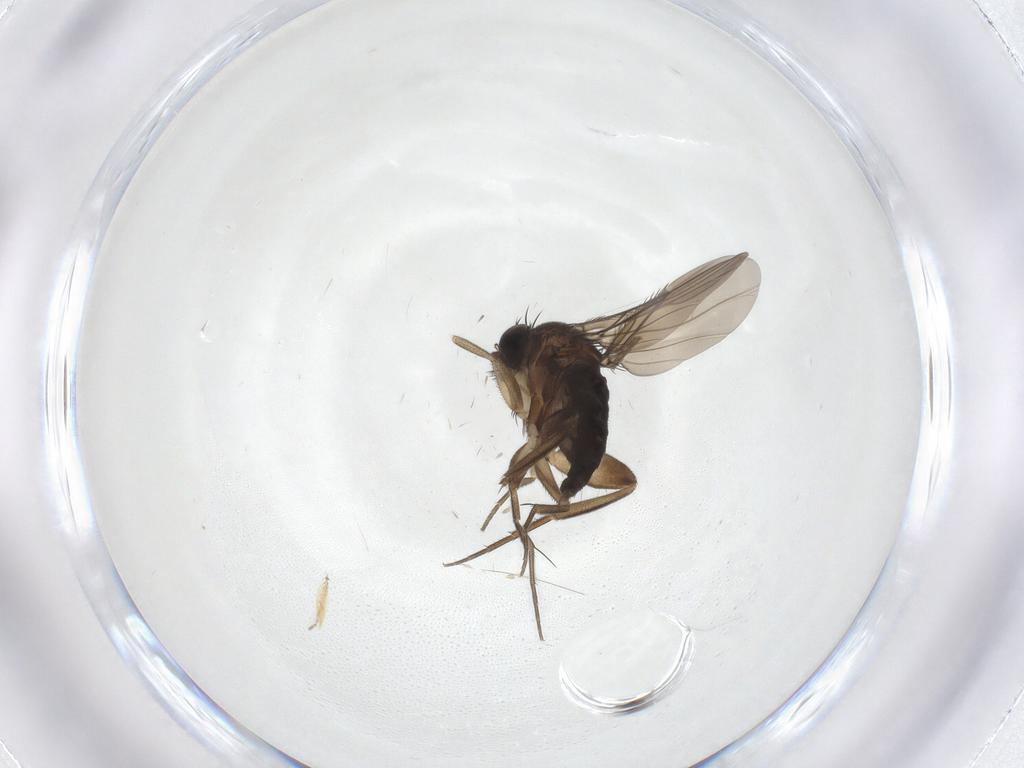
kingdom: Animalia
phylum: Arthropoda
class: Insecta
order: Diptera
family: Phoridae
